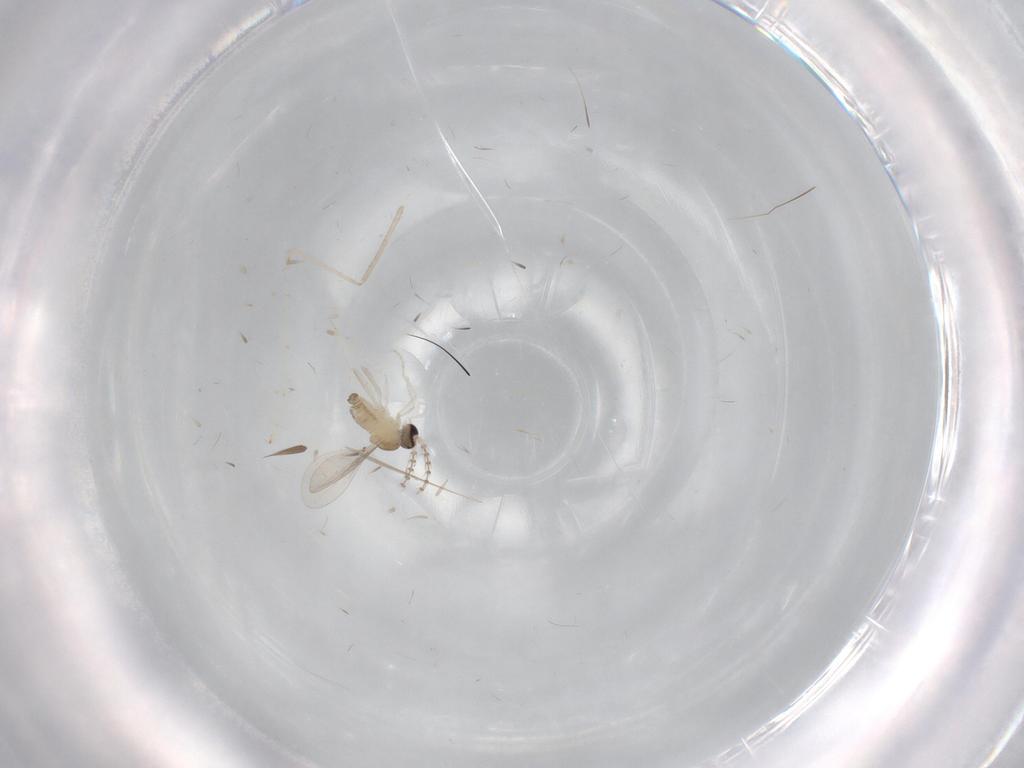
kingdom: Animalia
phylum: Arthropoda
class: Insecta
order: Diptera
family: Cecidomyiidae
